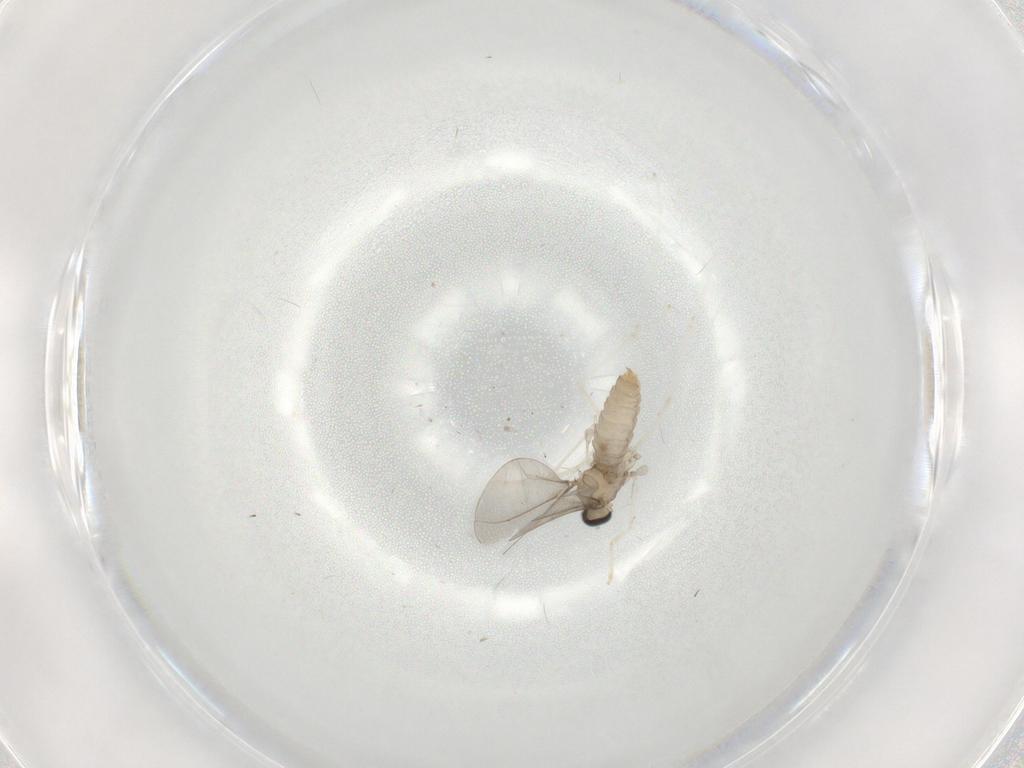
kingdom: Animalia
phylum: Arthropoda
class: Insecta
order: Diptera
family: Cecidomyiidae
